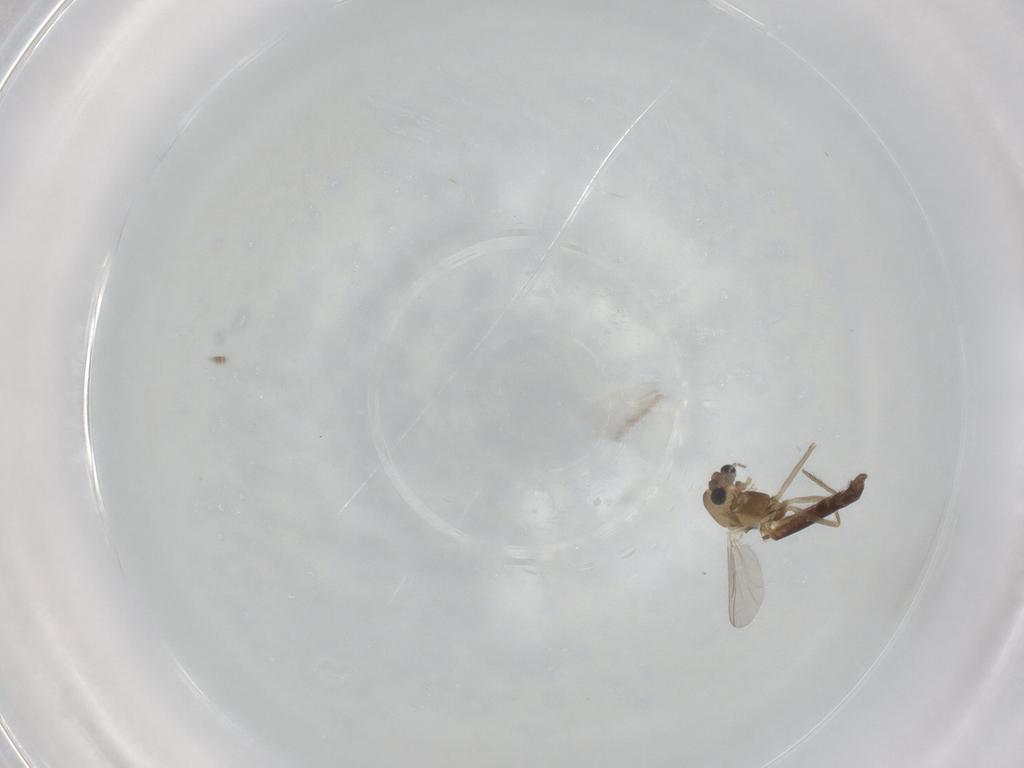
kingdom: Animalia
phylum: Arthropoda
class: Insecta
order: Diptera
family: Chironomidae
